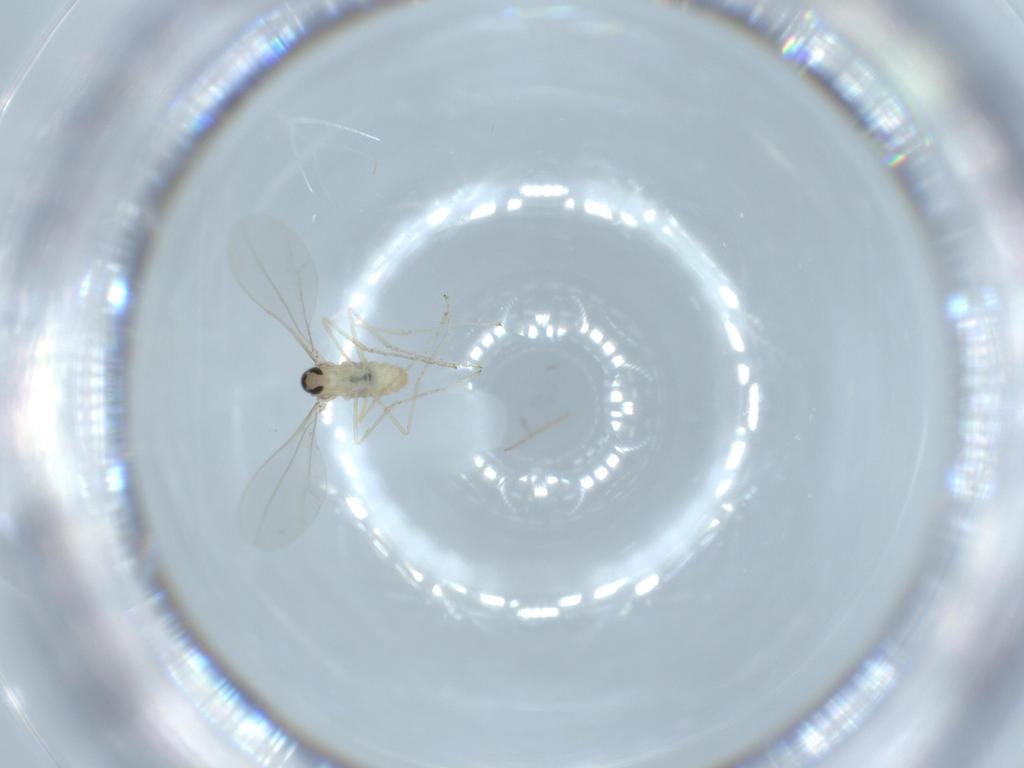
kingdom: Animalia
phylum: Arthropoda
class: Insecta
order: Diptera
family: Cecidomyiidae
